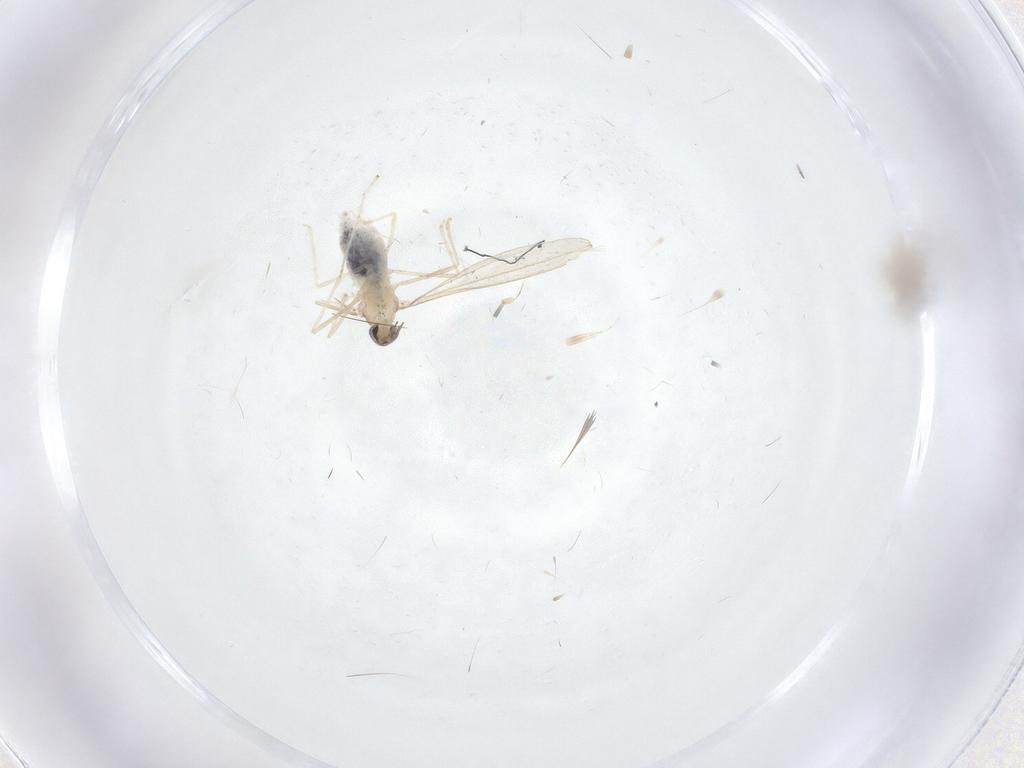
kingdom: Animalia
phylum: Arthropoda
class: Insecta
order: Diptera
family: Cecidomyiidae
